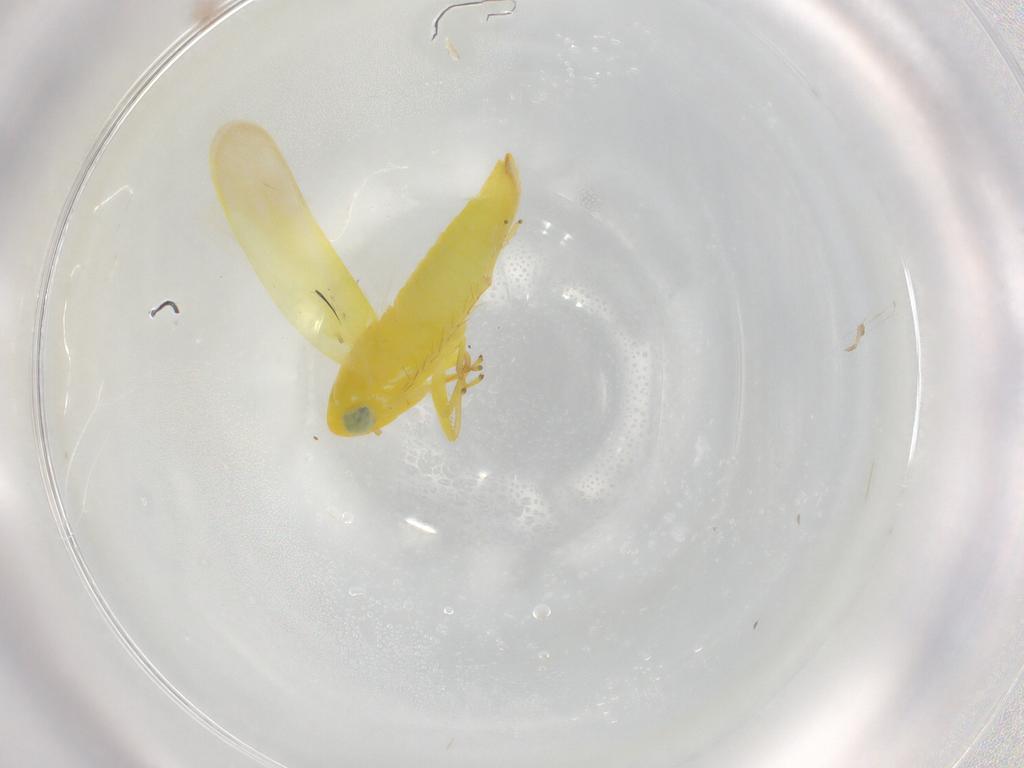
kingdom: Animalia
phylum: Arthropoda
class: Insecta
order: Hemiptera
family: Cicadellidae
